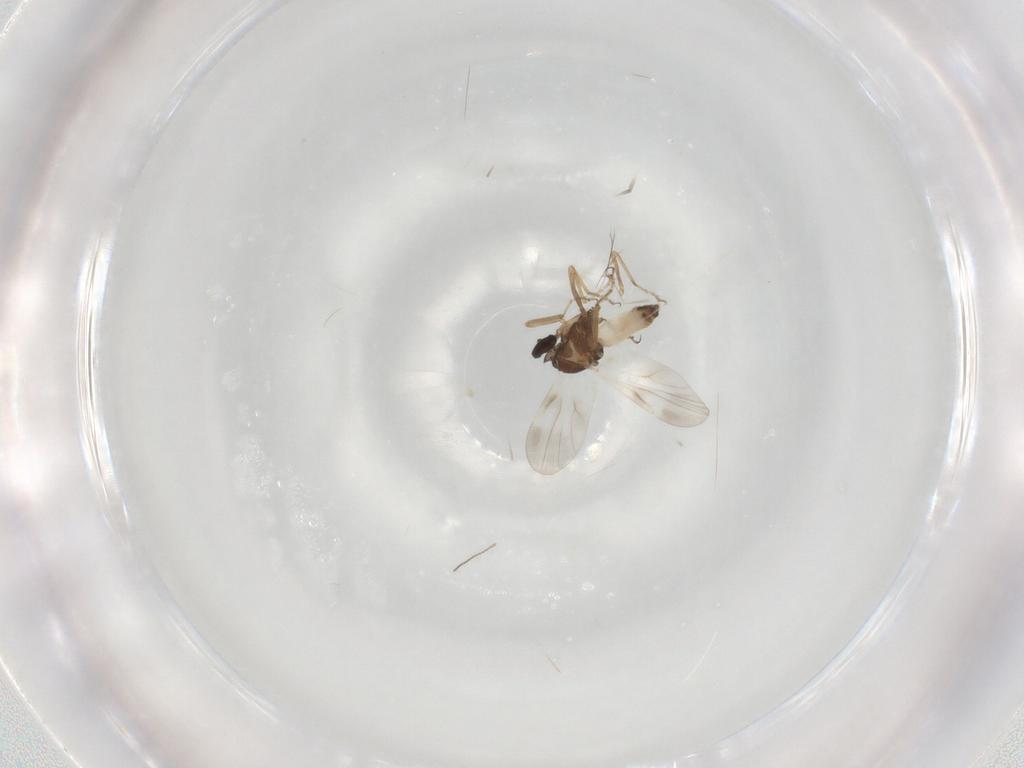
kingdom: Animalia
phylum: Arthropoda
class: Insecta
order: Diptera
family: Ceratopogonidae
